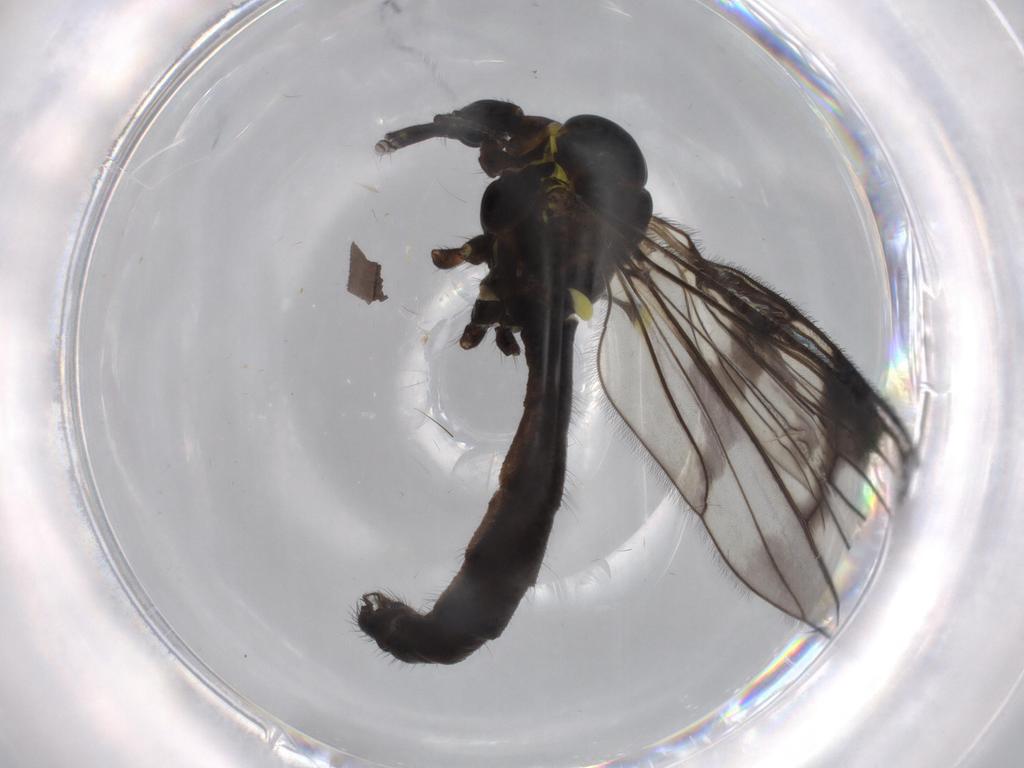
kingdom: Animalia
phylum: Arthropoda
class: Insecta
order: Diptera
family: Limoniidae
